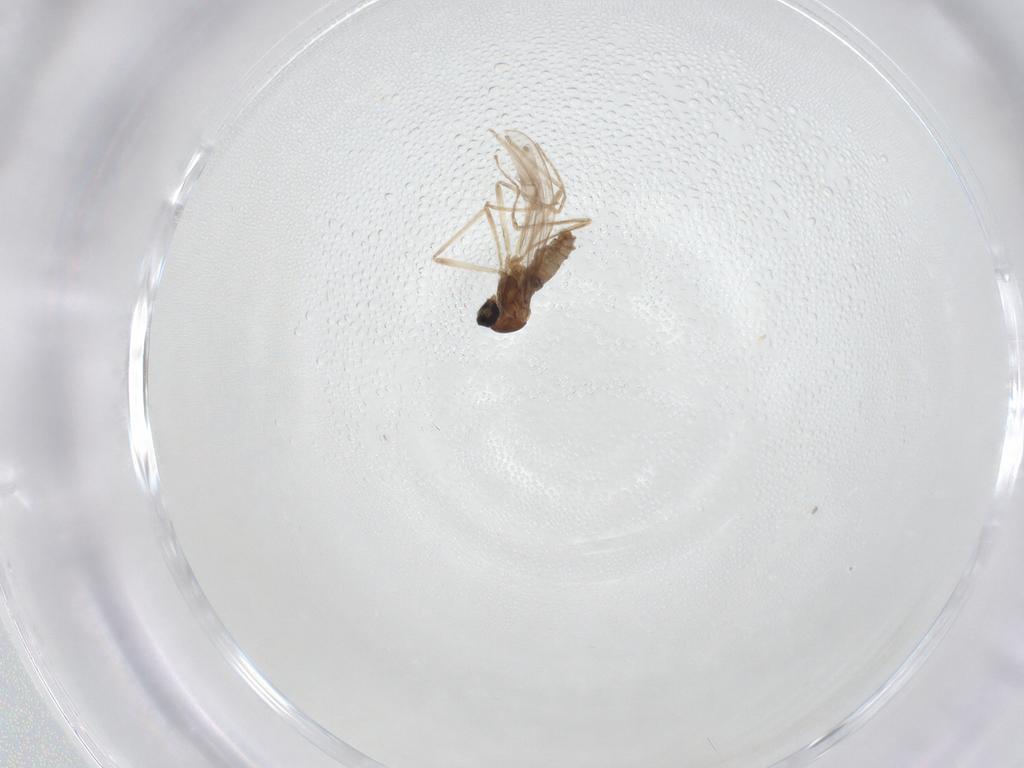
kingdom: Animalia
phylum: Arthropoda
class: Insecta
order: Diptera
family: Cecidomyiidae
